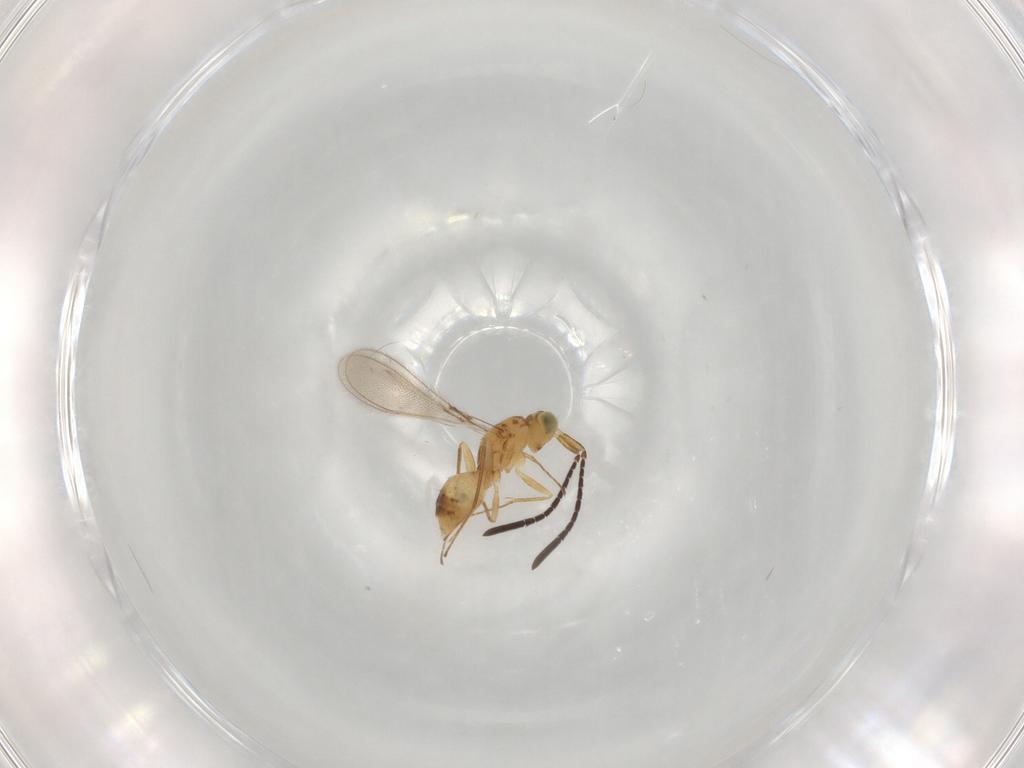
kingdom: Animalia
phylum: Arthropoda
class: Insecta
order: Hymenoptera
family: Mymaridae
